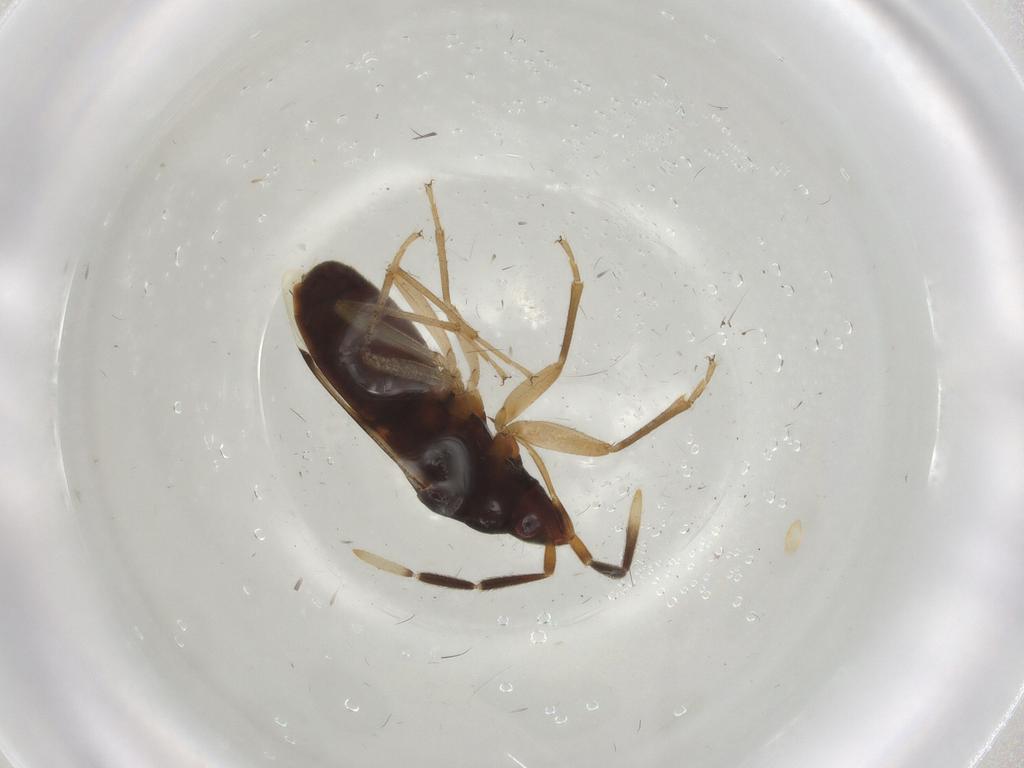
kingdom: Animalia
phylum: Arthropoda
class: Insecta
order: Hemiptera
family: Rhyparochromidae
